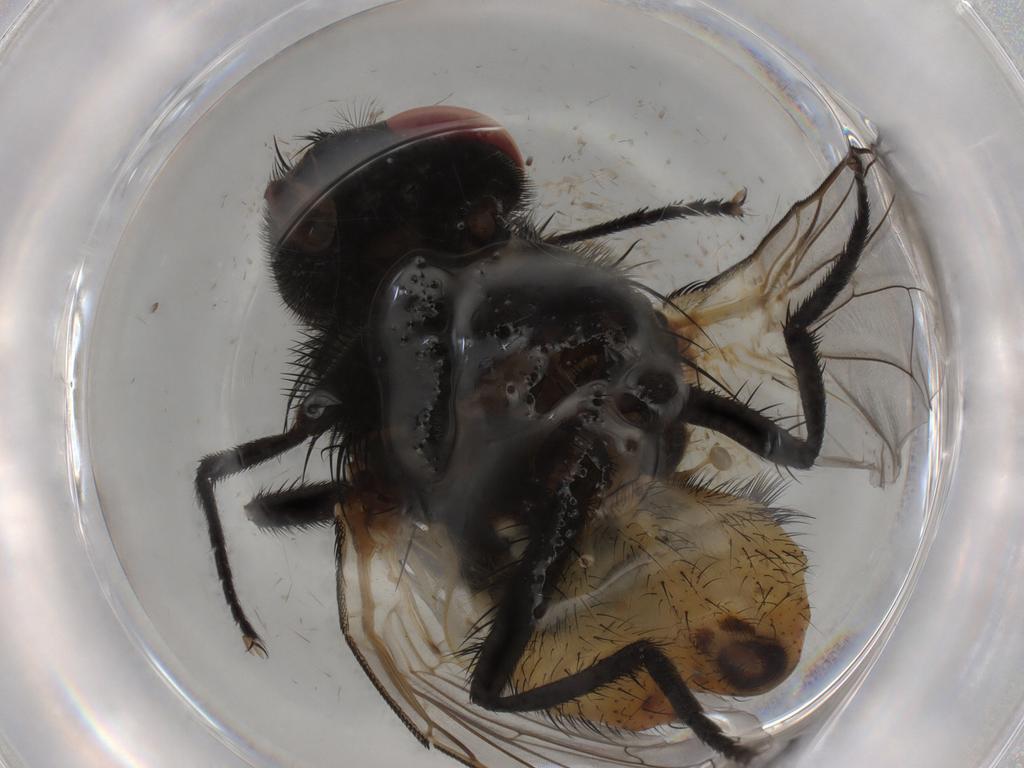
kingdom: Animalia
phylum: Arthropoda
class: Insecta
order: Diptera
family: Muscidae
